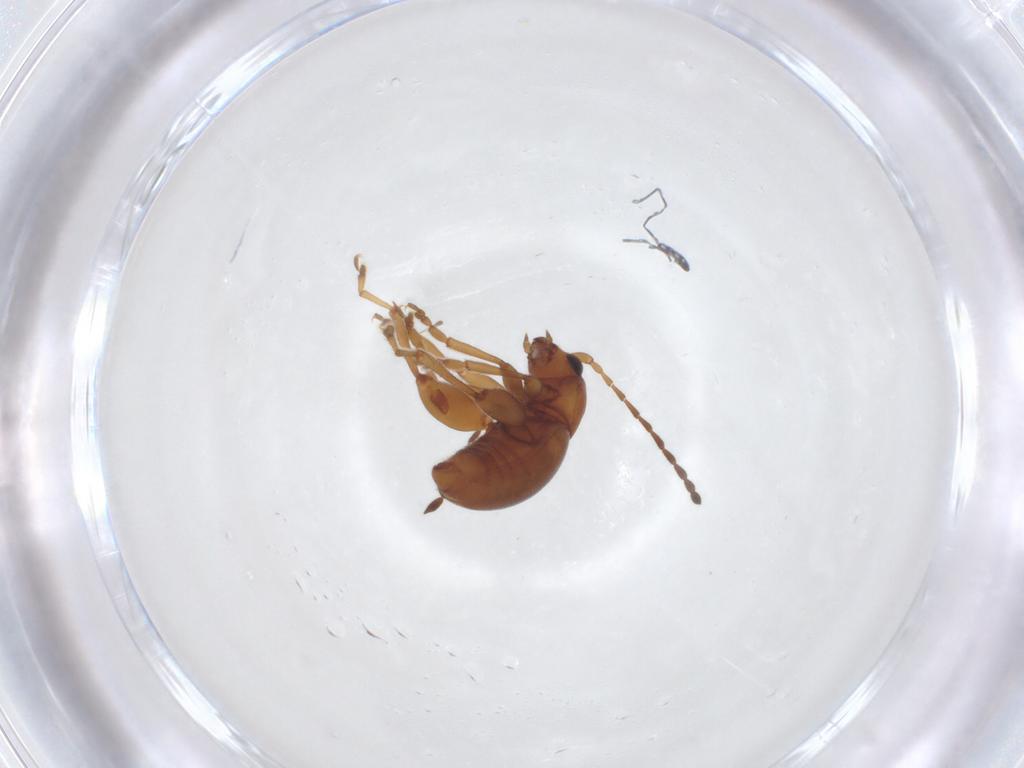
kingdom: Animalia
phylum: Arthropoda
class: Insecta
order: Coleoptera
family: Chrysomelidae
